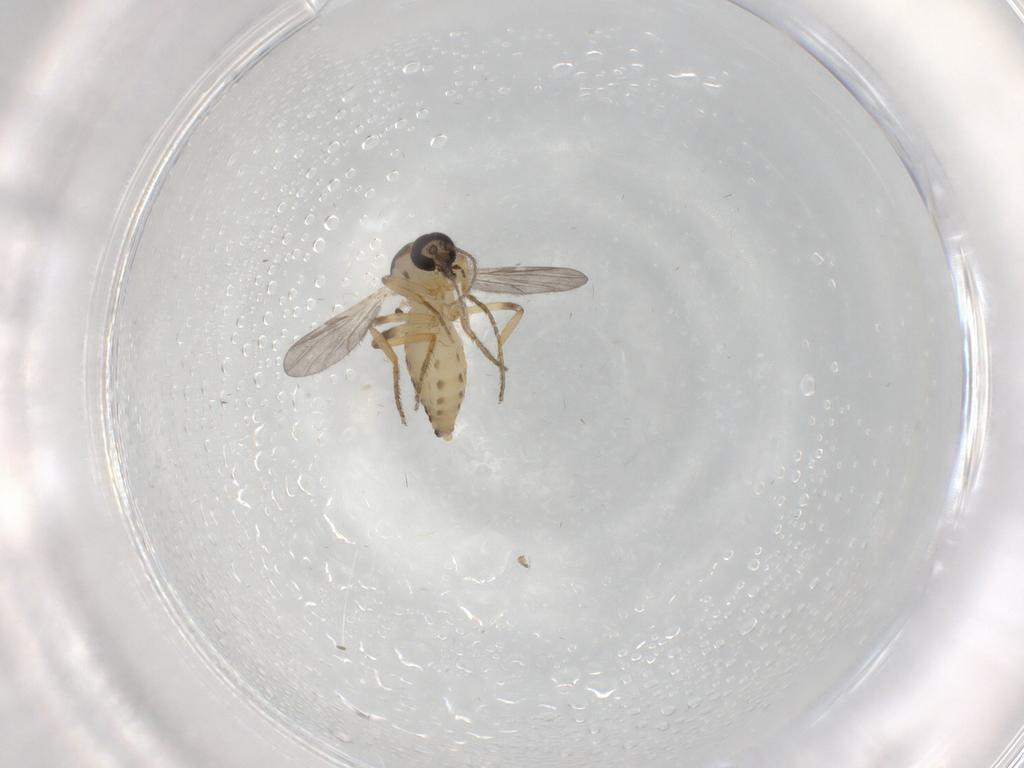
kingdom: Animalia
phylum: Arthropoda
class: Insecta
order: Diptera
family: Ceratopogonidae
